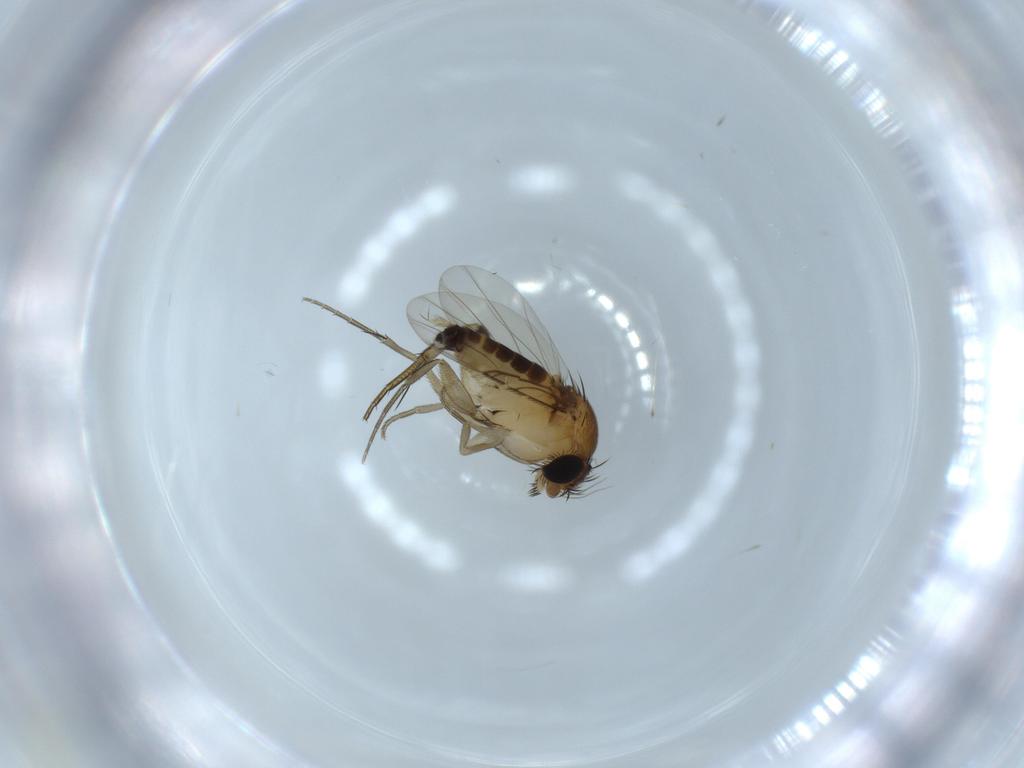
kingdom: Animalia
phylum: Arthropoda
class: Insecta
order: Diptera
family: Phoridae
